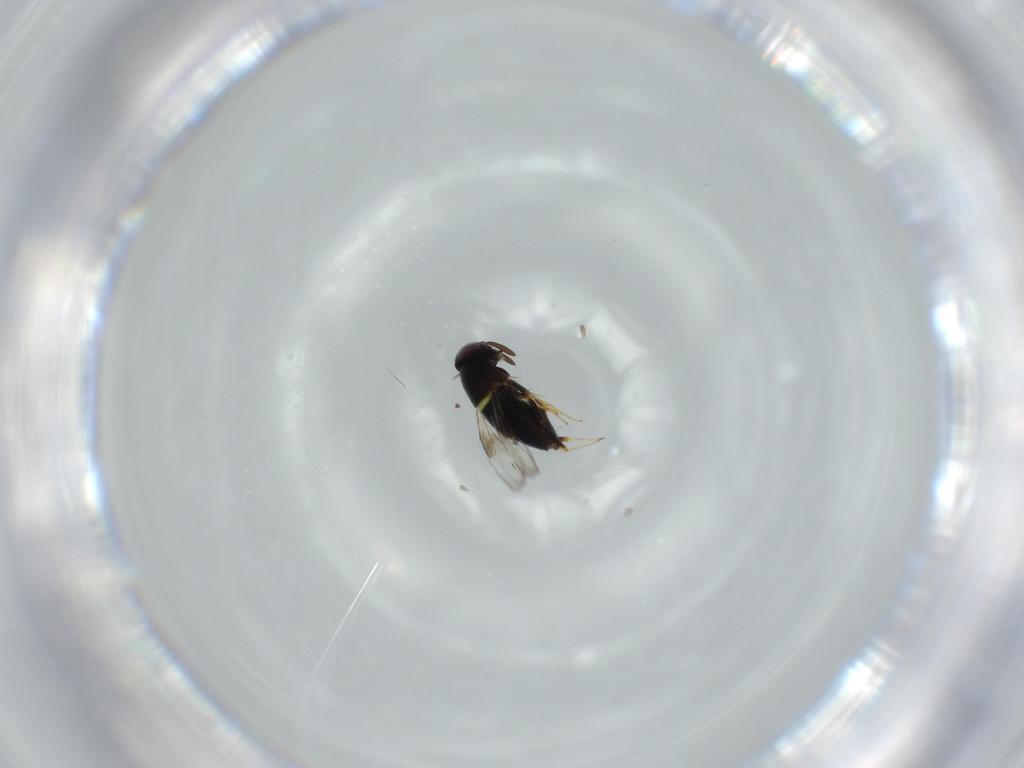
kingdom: Animalia
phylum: Arthropoda
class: Insecta
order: Hymenoptera
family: Signiphoridae
